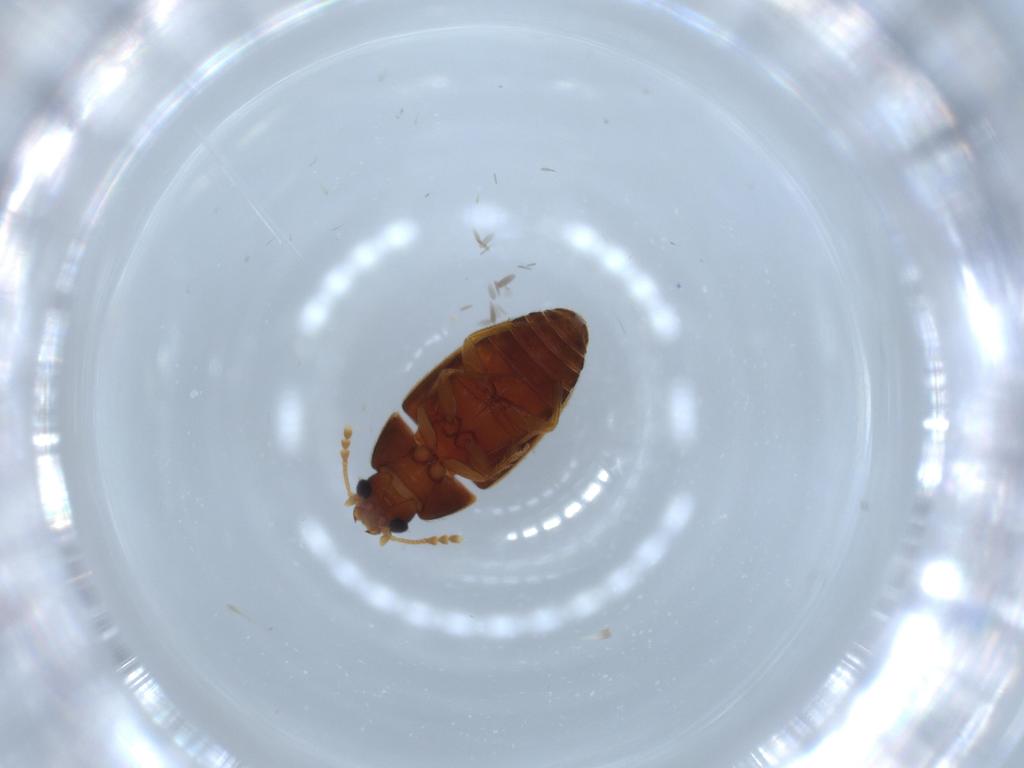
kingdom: Animalia
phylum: Arthropoda
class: Insecta
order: Coleoptera
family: Mycetophagidae
